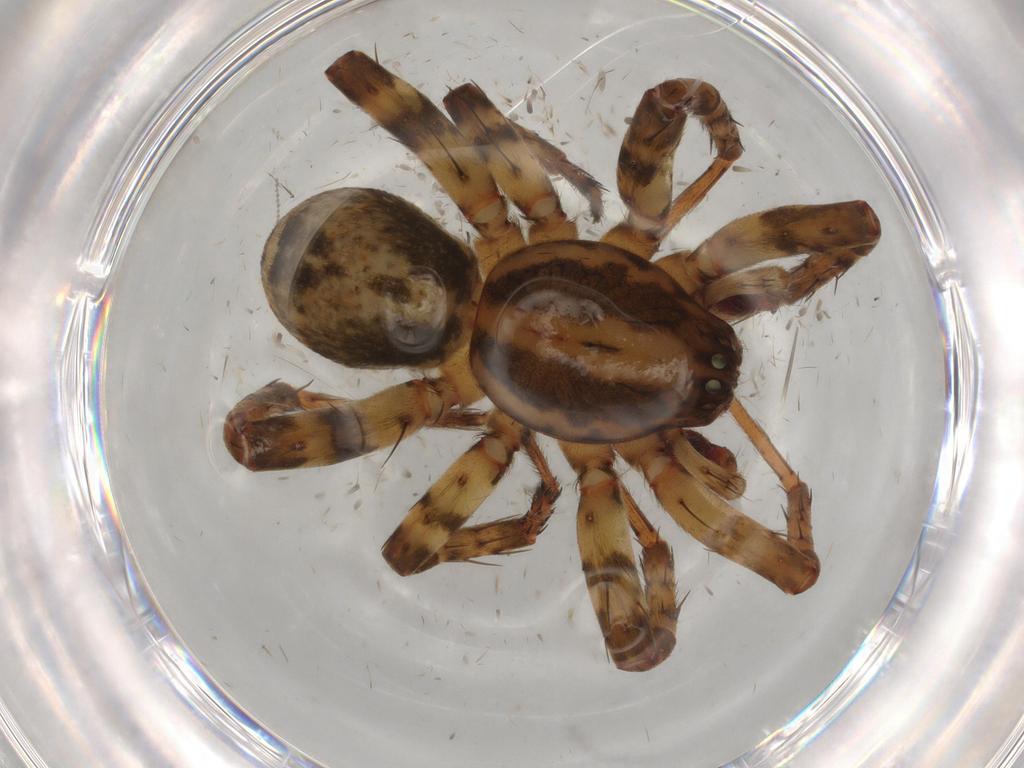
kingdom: Animalia
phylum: Arthropoda
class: Arachnida
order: Araneae
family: Anyphaenidae
